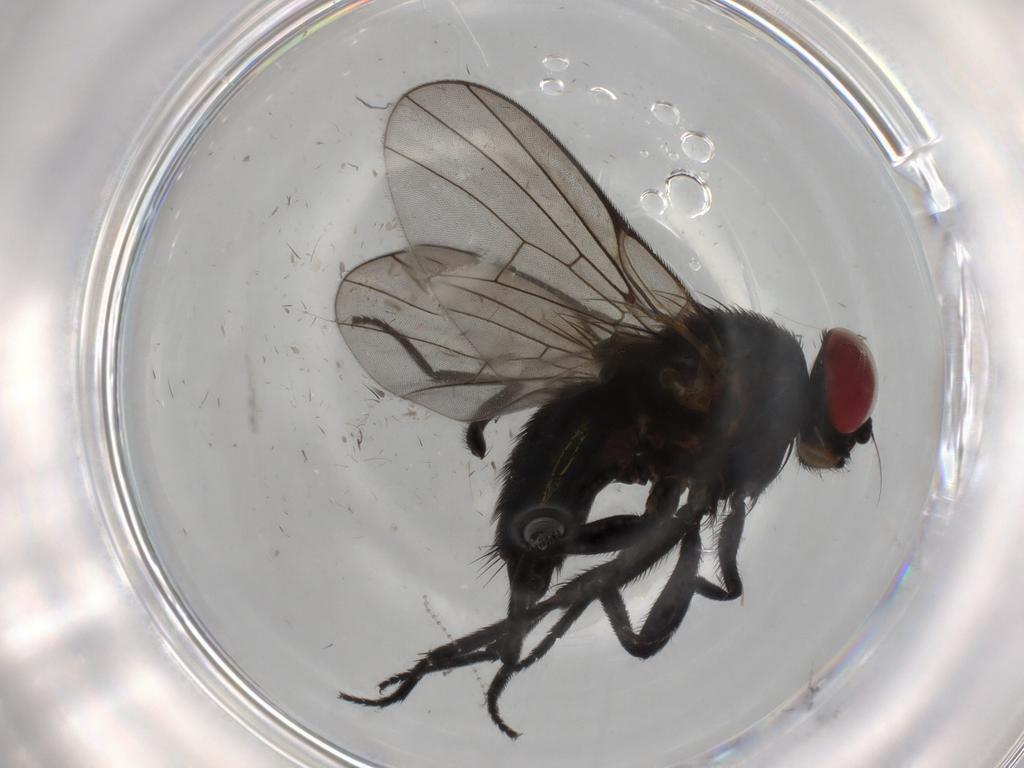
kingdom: Animalia
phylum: Arthropoda
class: Insecta
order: Diptera
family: Agromyzidae
